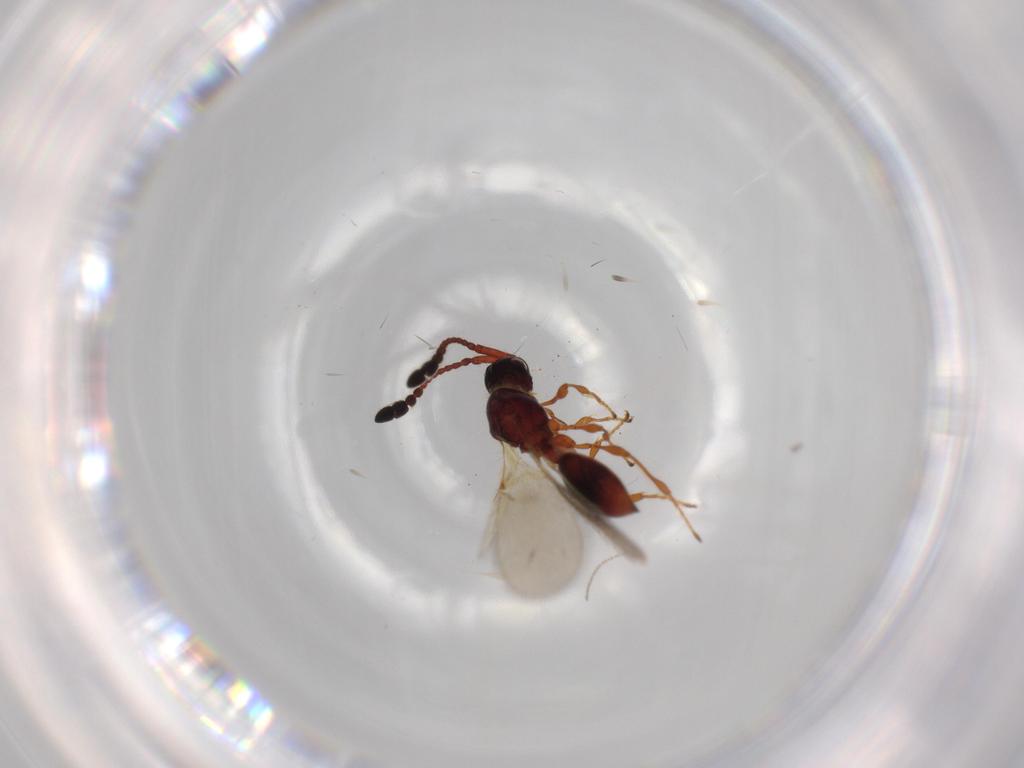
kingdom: Animalia
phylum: Arthropoda
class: Insecta
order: Hymenoptera
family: Diapriidae
